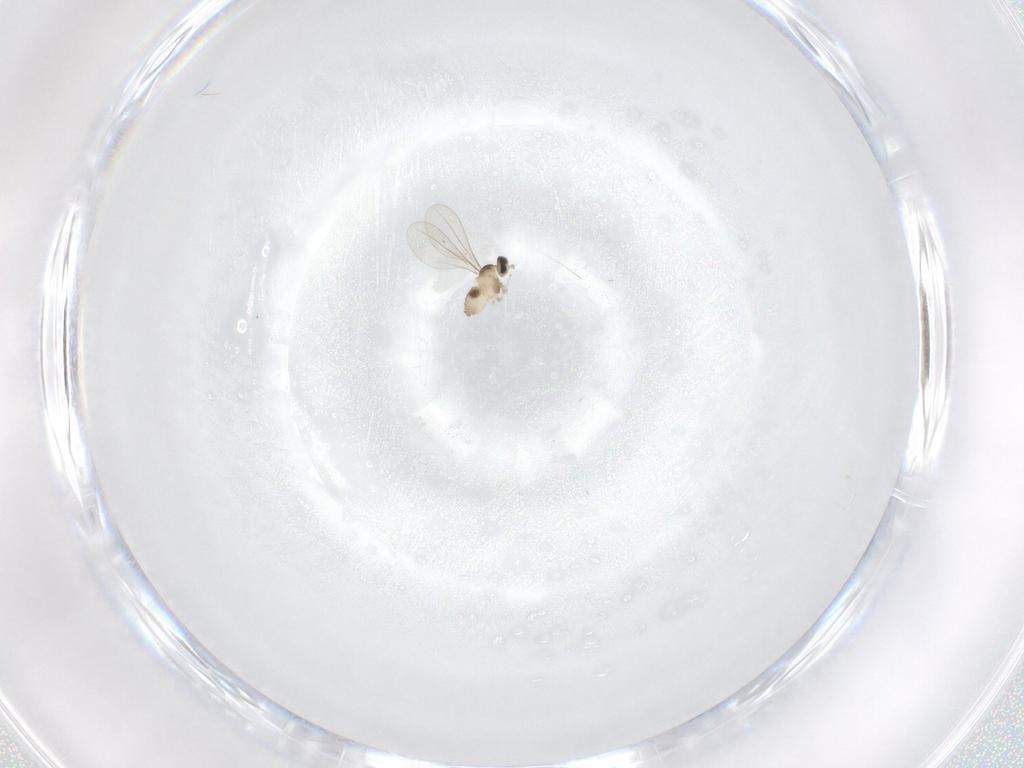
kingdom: Animalia
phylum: Arthropoda
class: Insecta
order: Diptera
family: Cecidomyiidae
